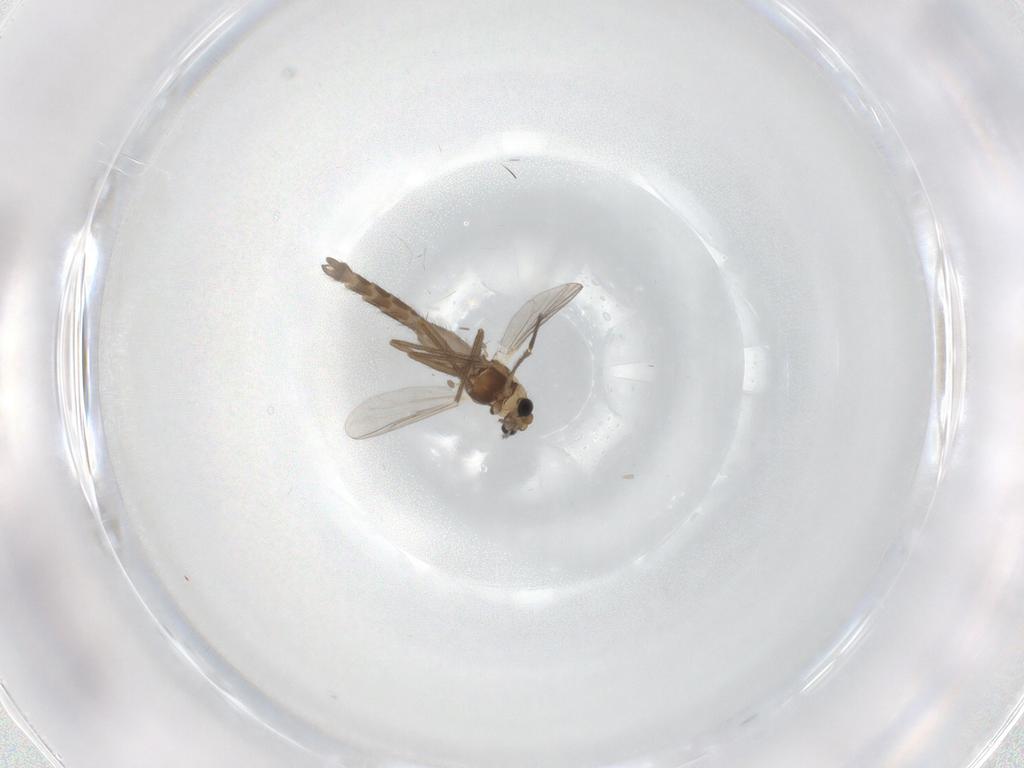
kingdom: Animalia
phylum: Arthropoda
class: Insecta
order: Diptera
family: Chironomidae
